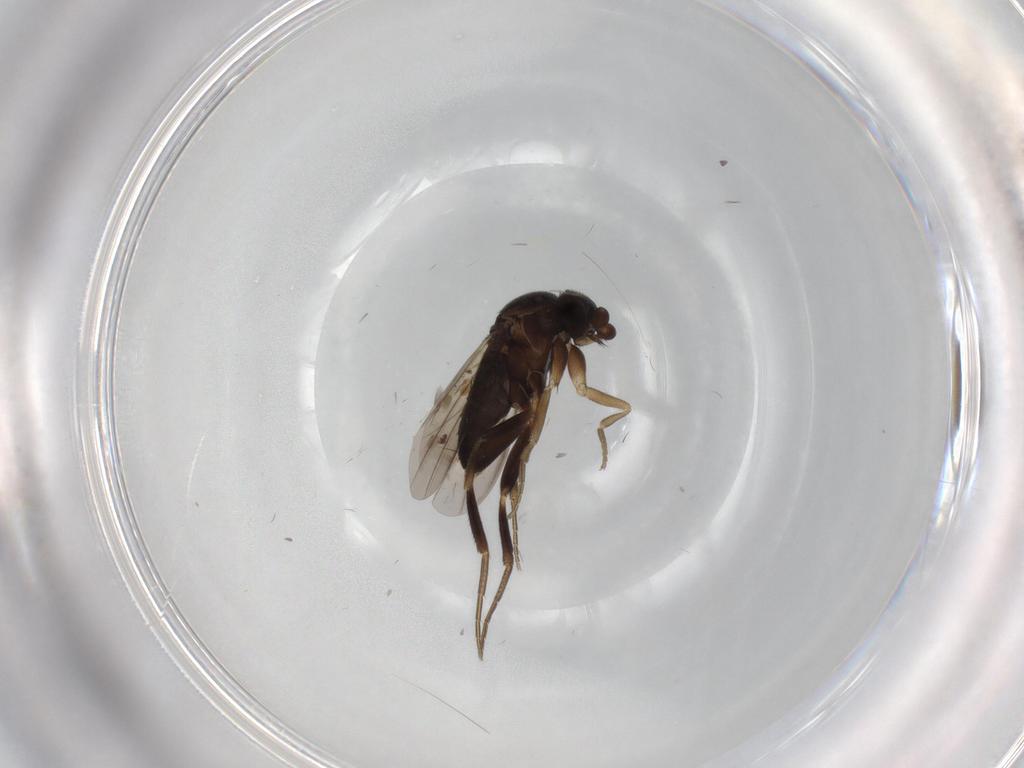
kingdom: Animalia
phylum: Arthropoda
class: Insecta
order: Diptera
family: Phoridae
